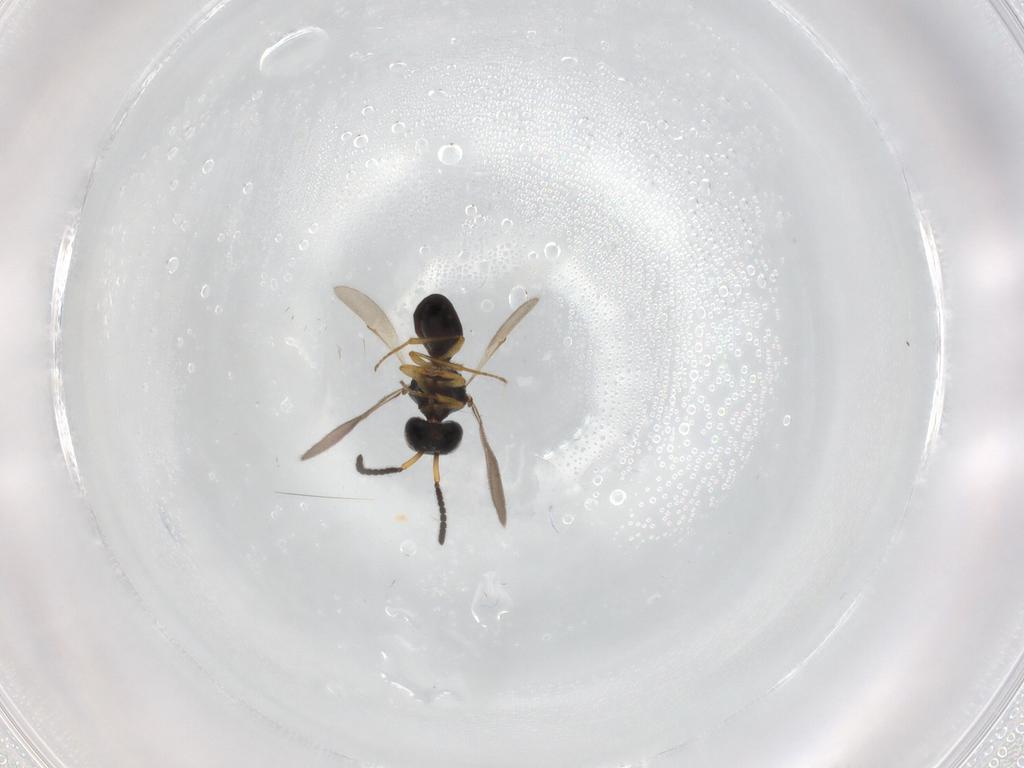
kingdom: Animalia
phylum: Arthropoda
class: Insecta
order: Hymenoptera
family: Scelionidae
